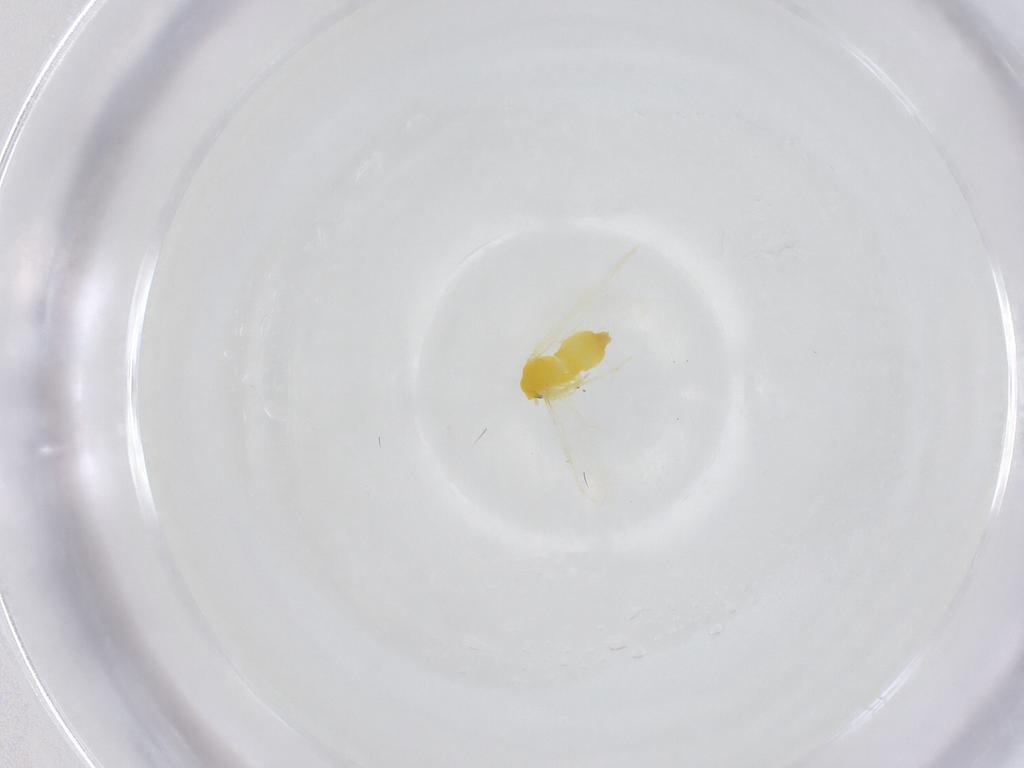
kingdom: Animalia
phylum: Arthropoda
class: Insecta
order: Hemiptera
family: Aleyrodidae
